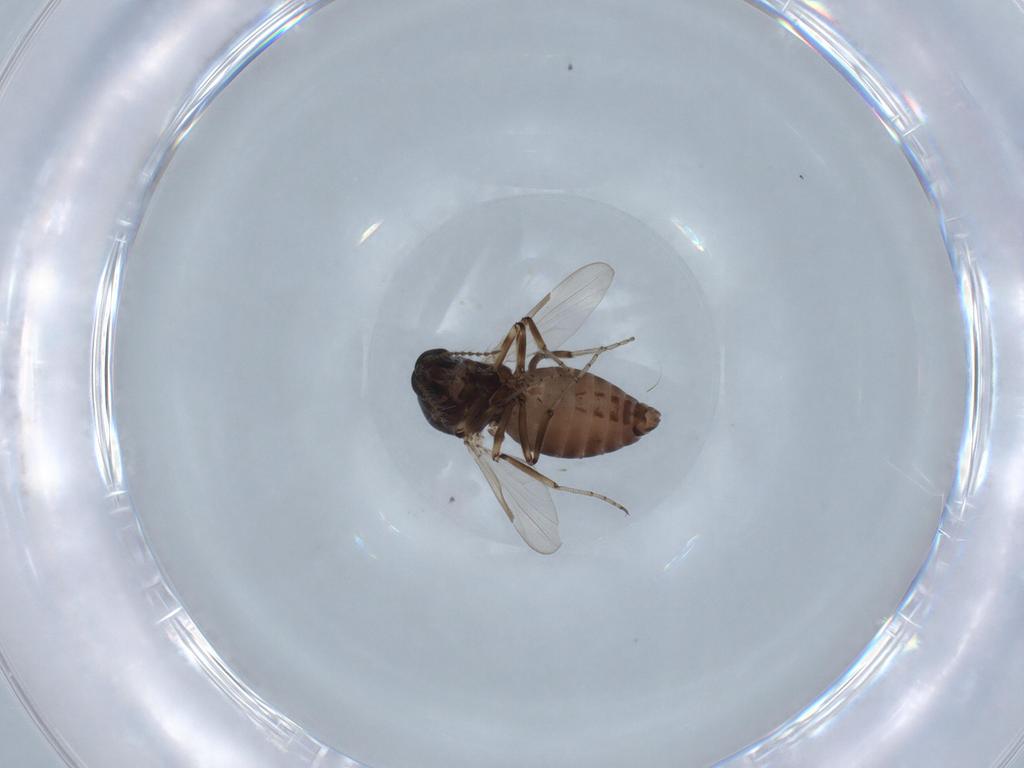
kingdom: Animalia
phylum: Arthropoda
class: Insecta
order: Diptera
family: Ceratopogonidae
